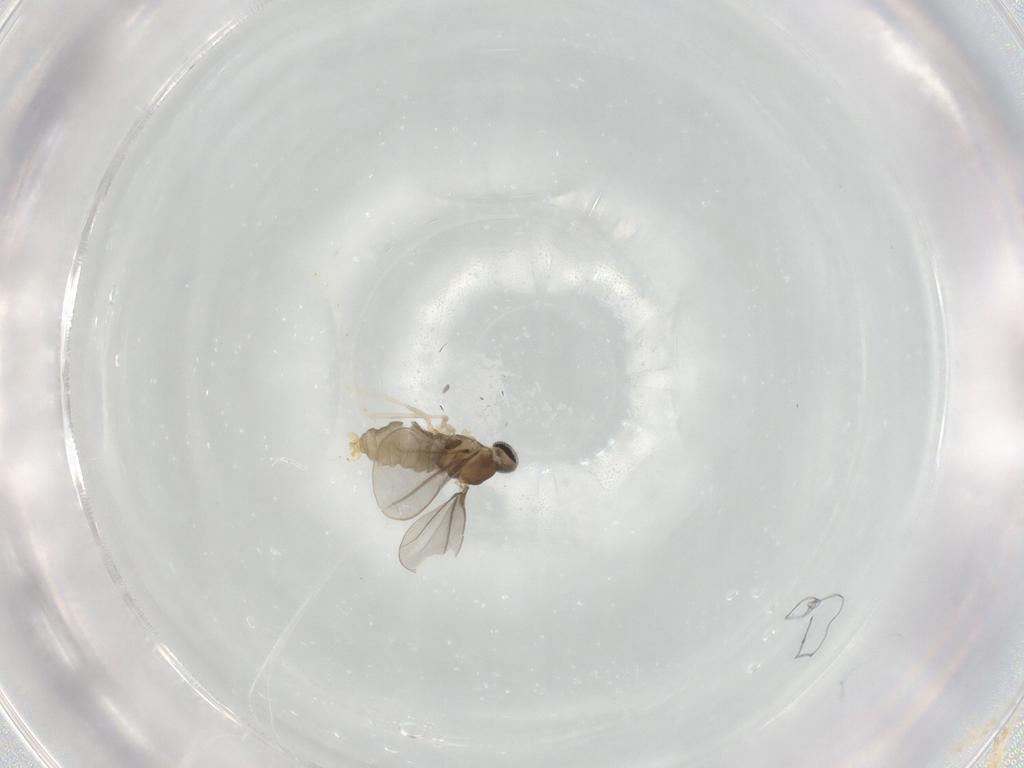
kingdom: Animalia
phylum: Arthropoda
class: Insecta
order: Diptera
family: Cecidomyiidae
